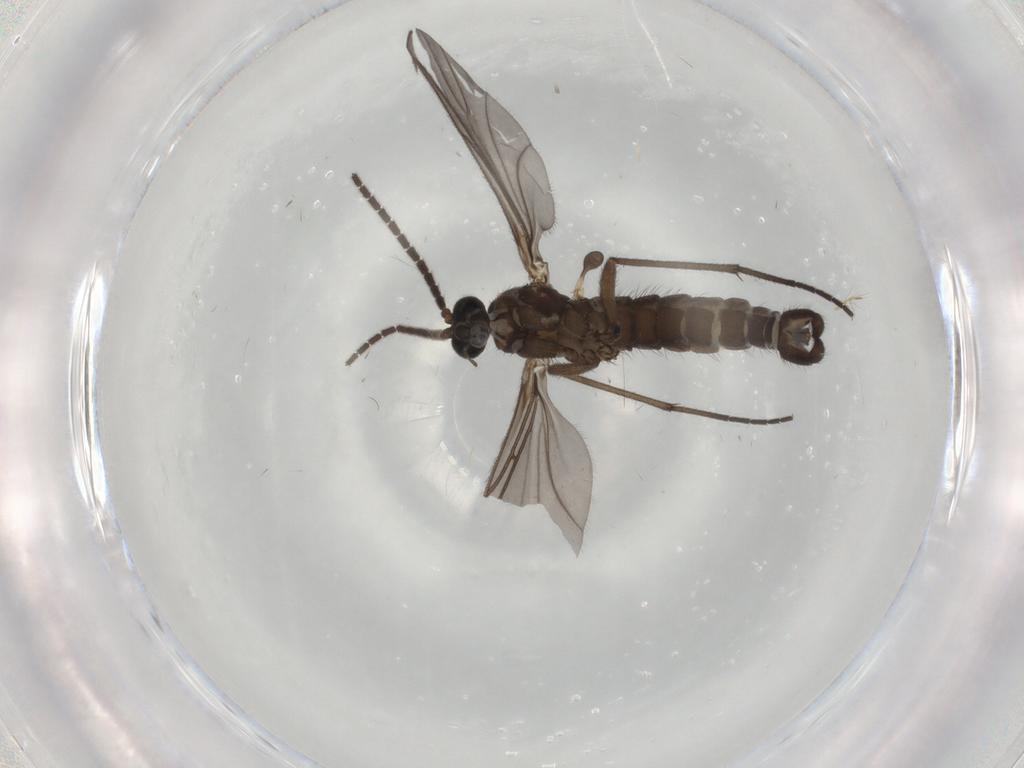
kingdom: Animalia
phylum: Arthropoda
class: Insecta
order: Diptera
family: Sciaridae
